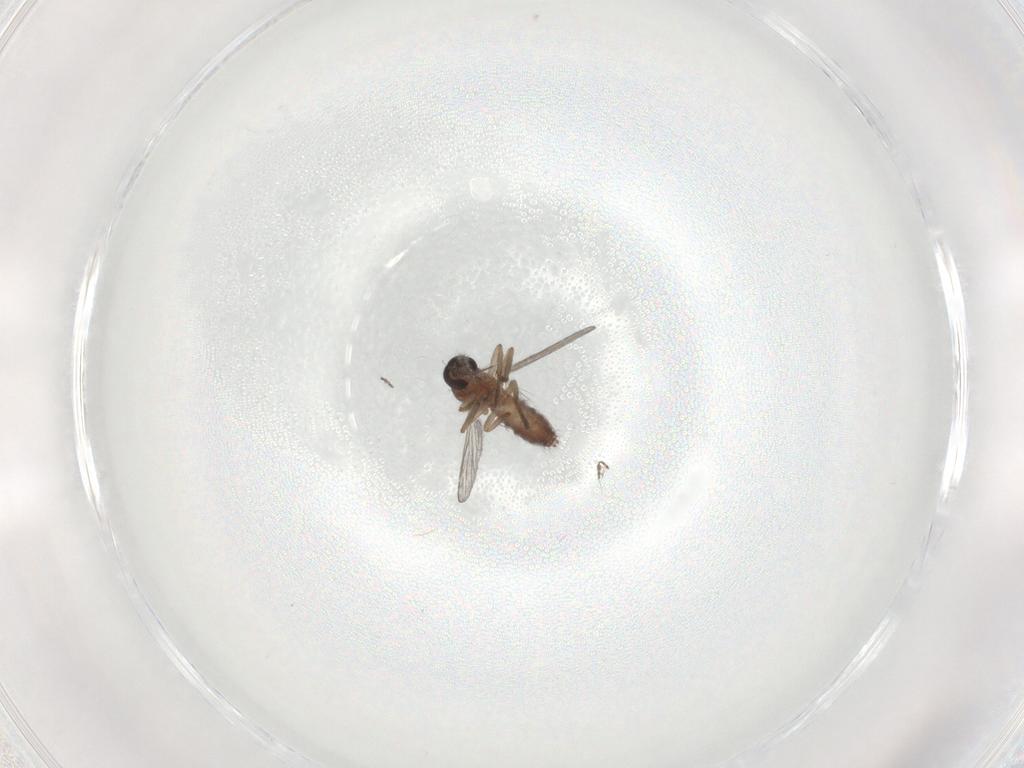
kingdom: Animalia
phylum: Arthropoda
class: Insecta
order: Diptera
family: Ceratopogonidae
